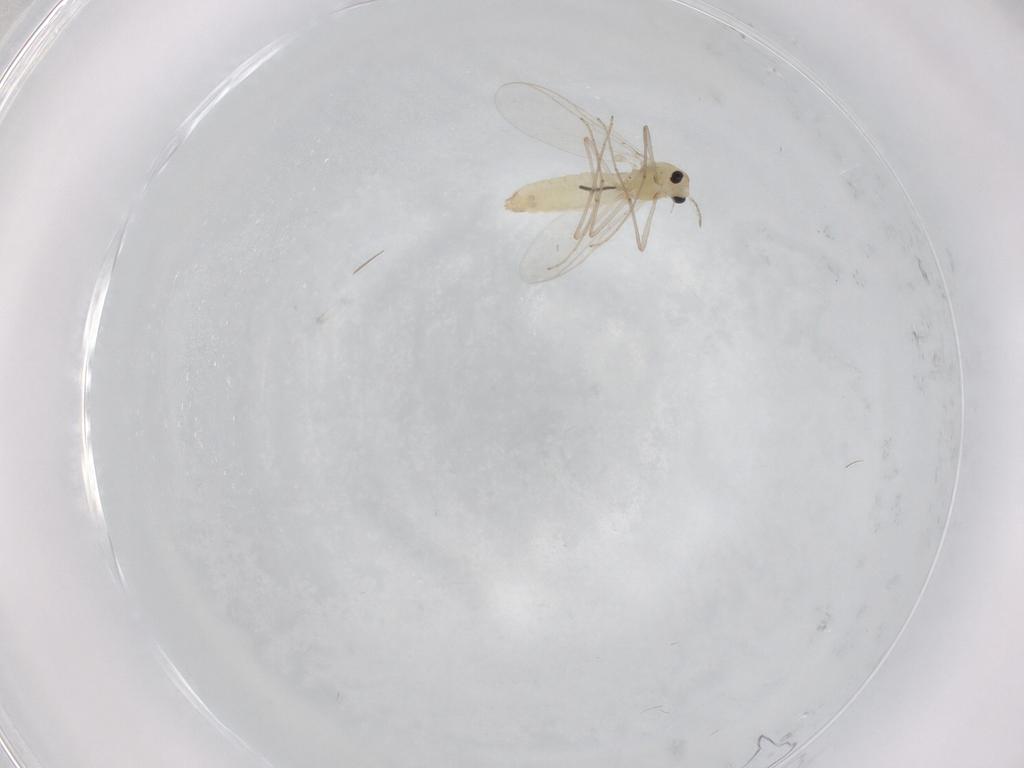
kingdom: Animalia
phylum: Arthropoda
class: Insecta
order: Diptera
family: Chironomidae
